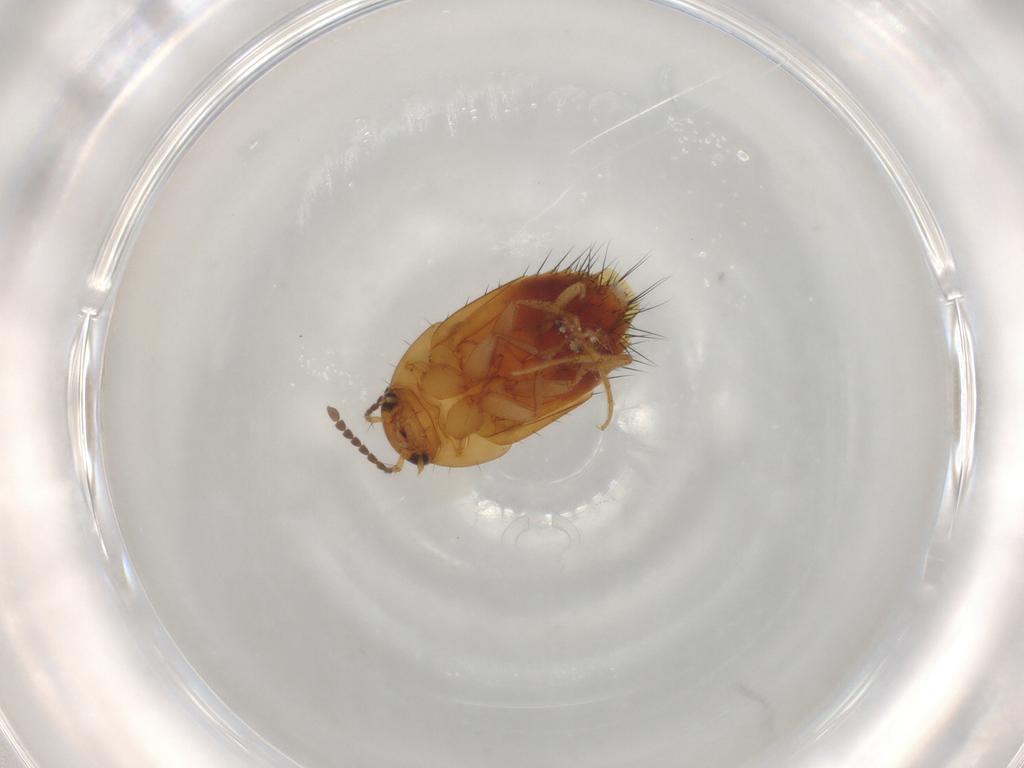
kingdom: Animalia
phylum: Arthropoda
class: Insecta
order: Coleoptera
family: Staphylinidae
